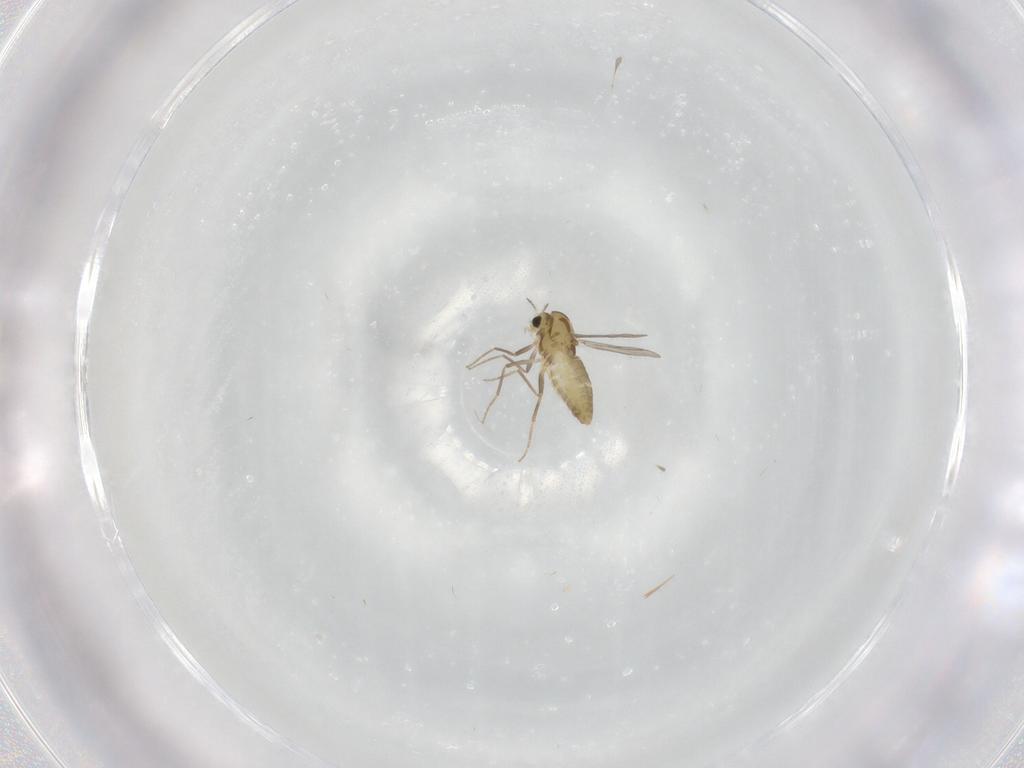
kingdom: Animalia
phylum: Arthropoda
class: Insecta
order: Diptera
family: Chironomidae
